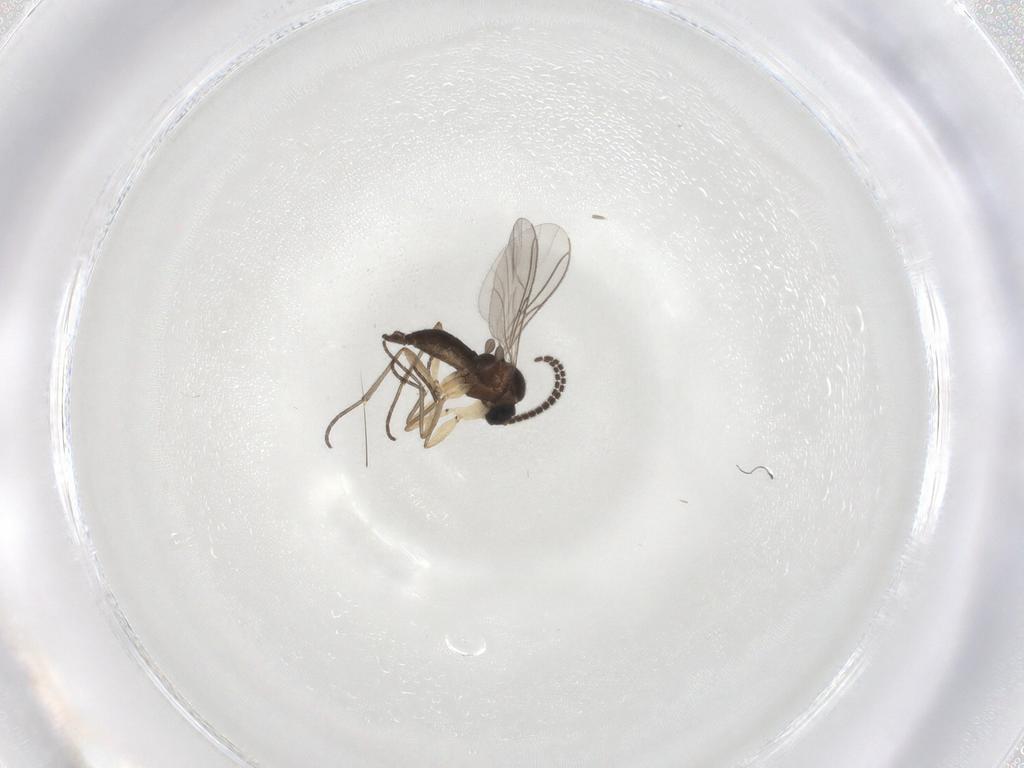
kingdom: Animalia
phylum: Arthropoda
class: Insecta
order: Diptera
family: Sciaridae
